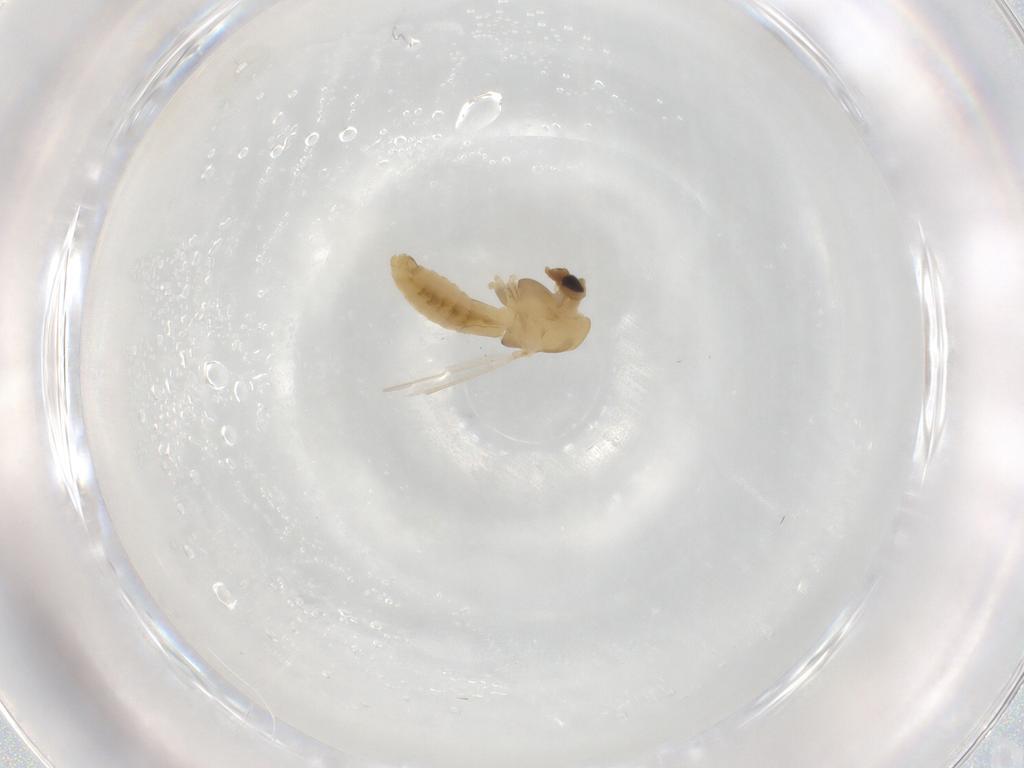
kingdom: Animalia
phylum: Arthropoda
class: Insecta
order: Diptera
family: Chironomidae
